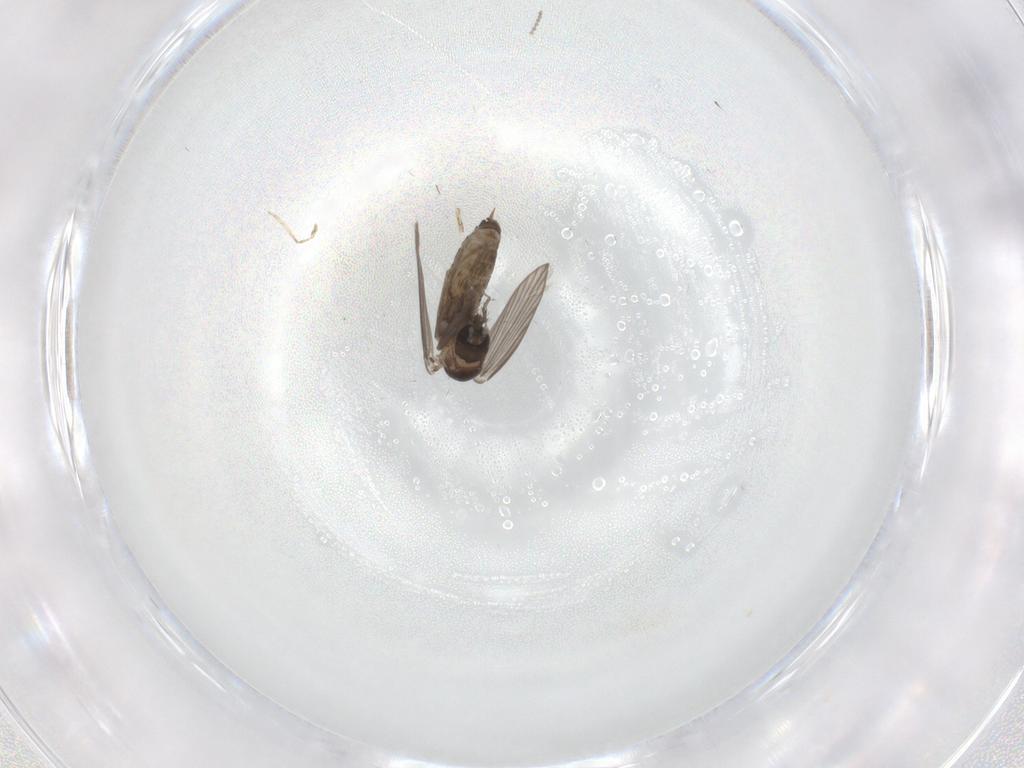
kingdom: Animalia
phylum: Arthropoda
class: Insecta
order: Diptera
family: Psychodidae
